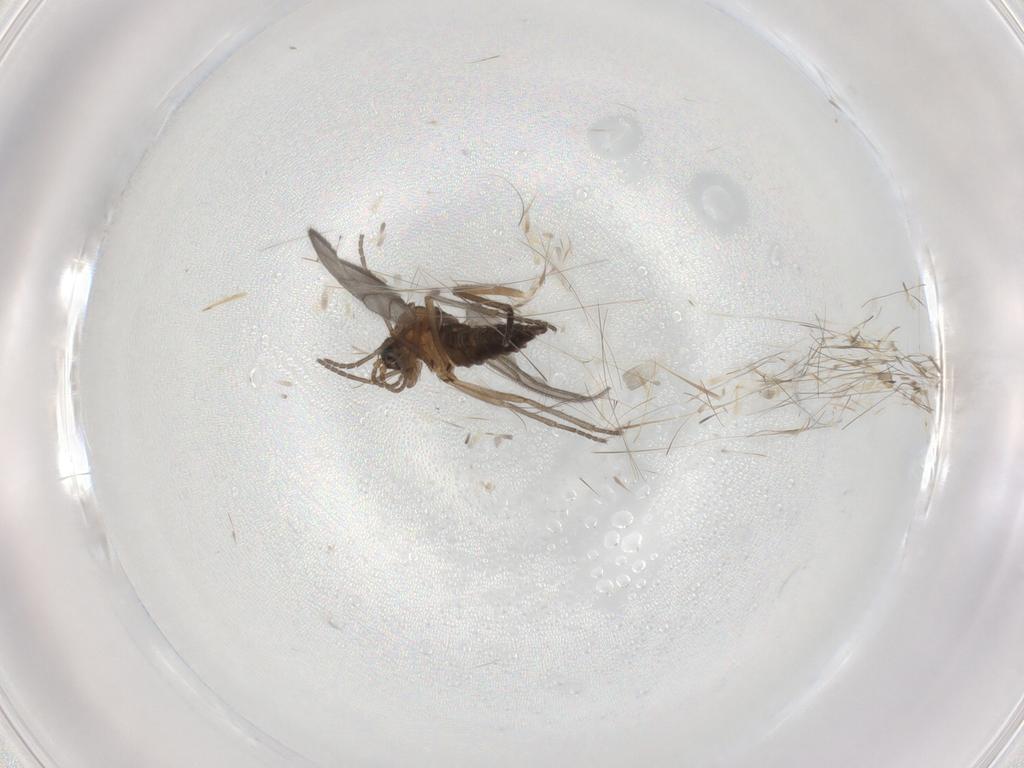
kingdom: Animalia
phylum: Arthropoda
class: Insecta
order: Diptera
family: Sciaridae
